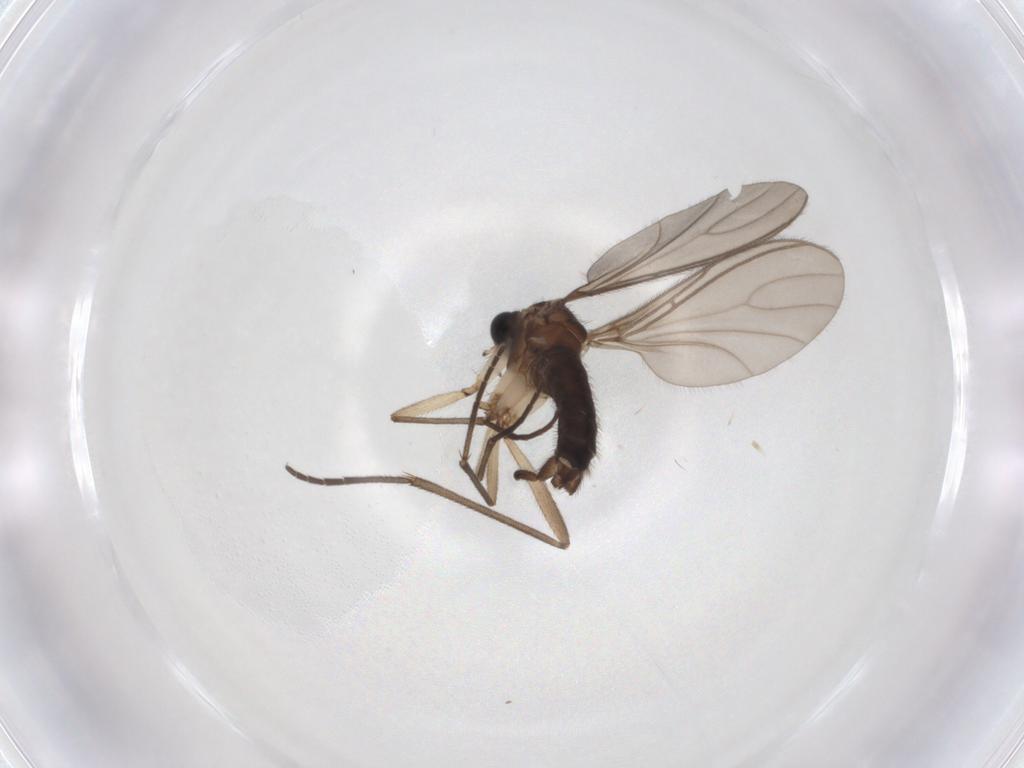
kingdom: Animalia
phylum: Arthropoda
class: Insecta
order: Diptera
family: Sciaridae
